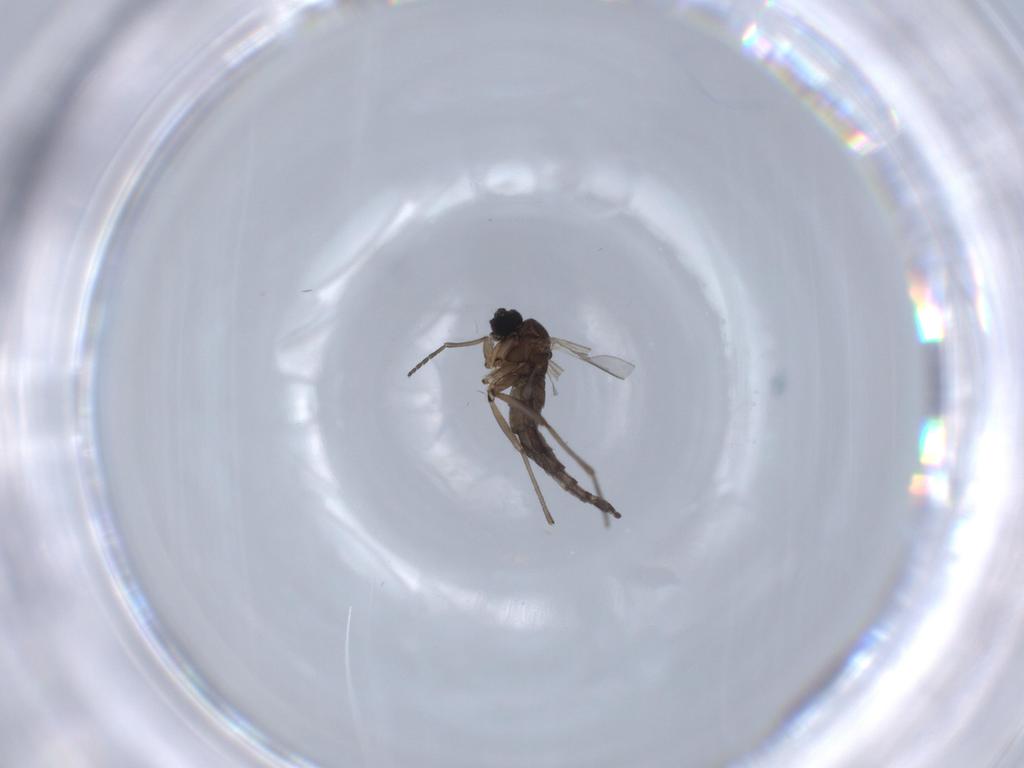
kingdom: Animalia
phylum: Arthropoda
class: Insecta
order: Diptera
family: Sciaridae
